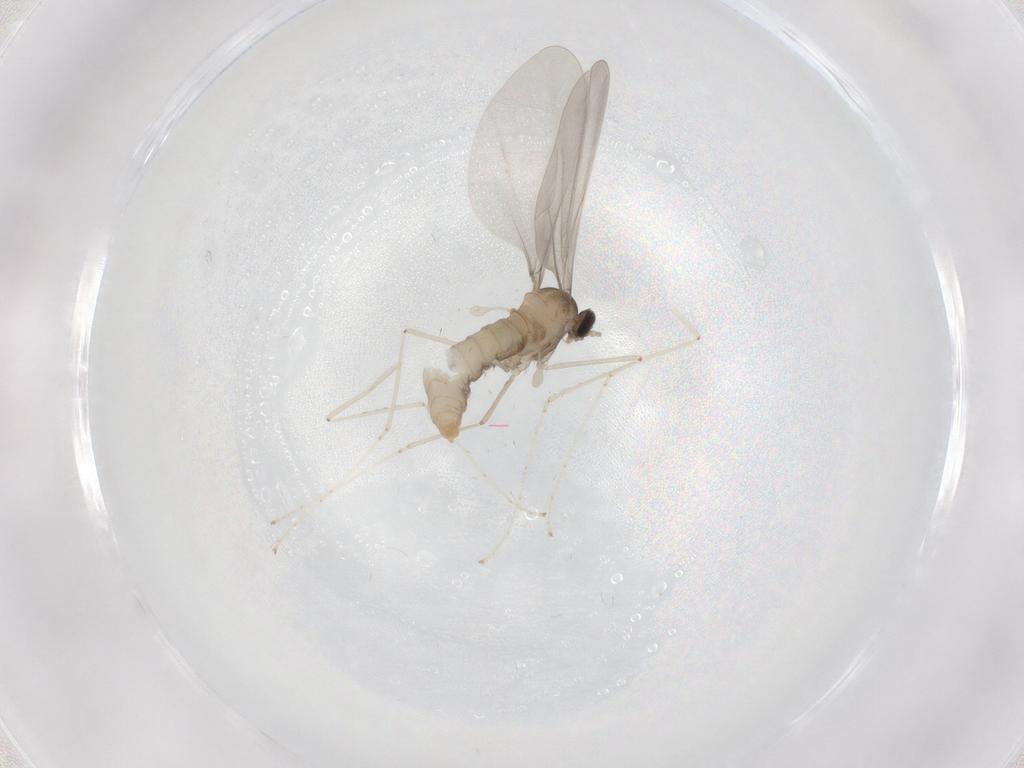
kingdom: Animalia
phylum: Arthropoda
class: Insecta
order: Diptera
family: Cecidomyiidae
